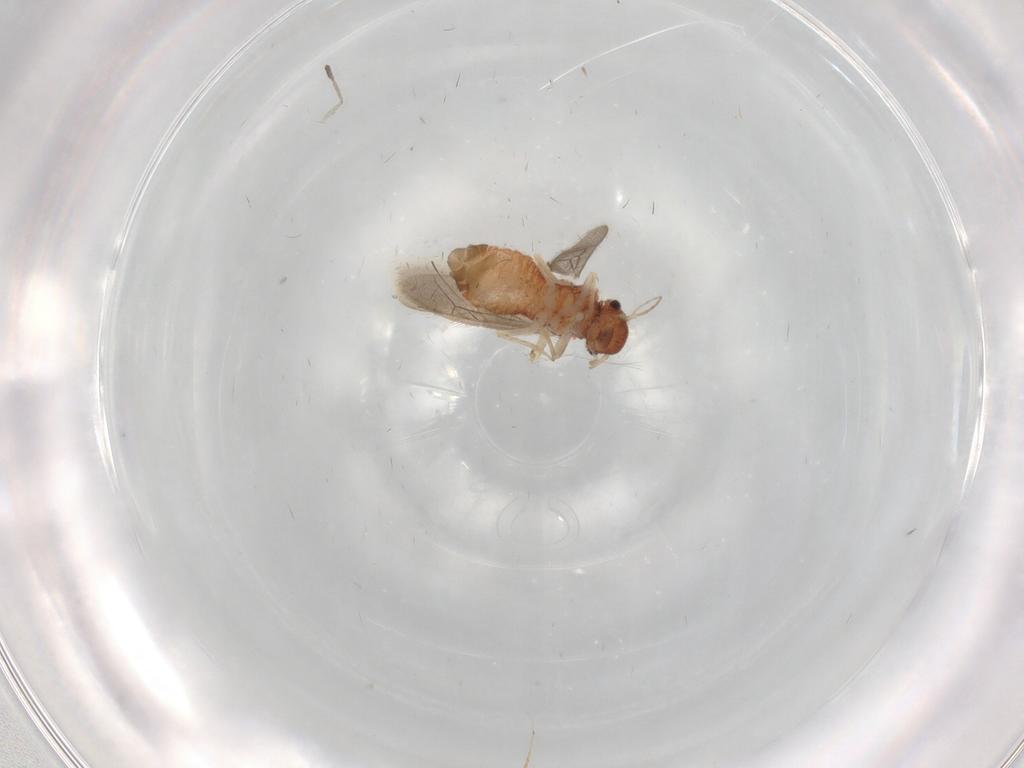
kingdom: Animalia
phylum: Arthropoda
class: Insecta
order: Psocodea
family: Archipsocidae
